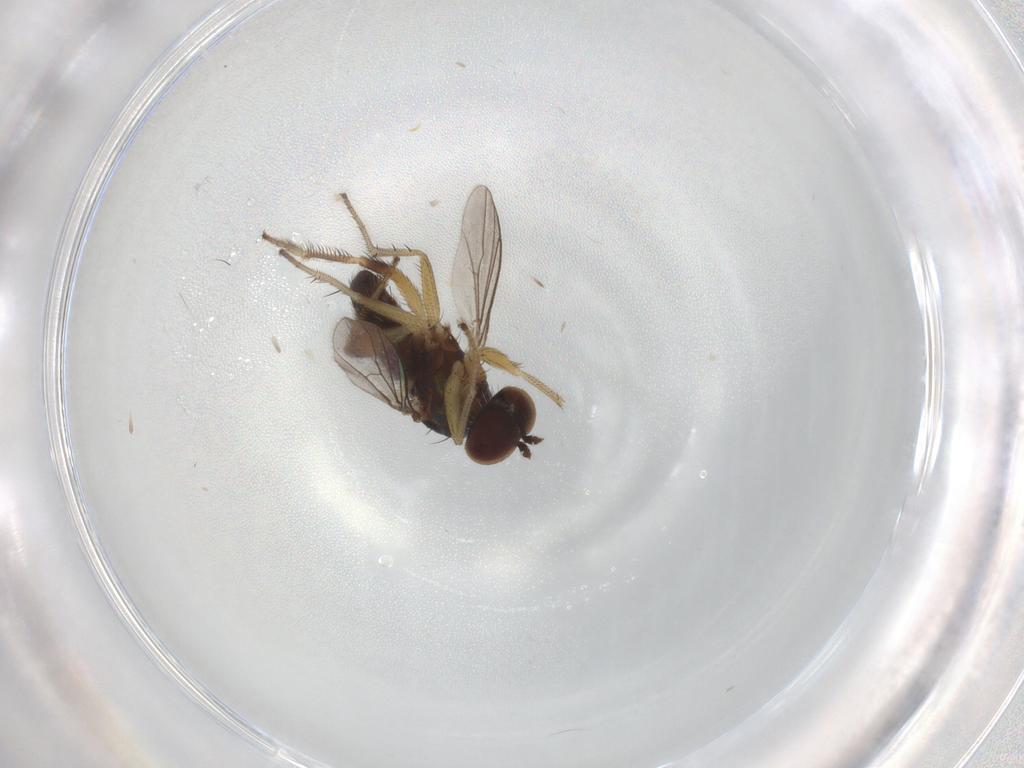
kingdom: Animalia
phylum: Arthropoda
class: Insecta
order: Diptera
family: Dolichopodidae
